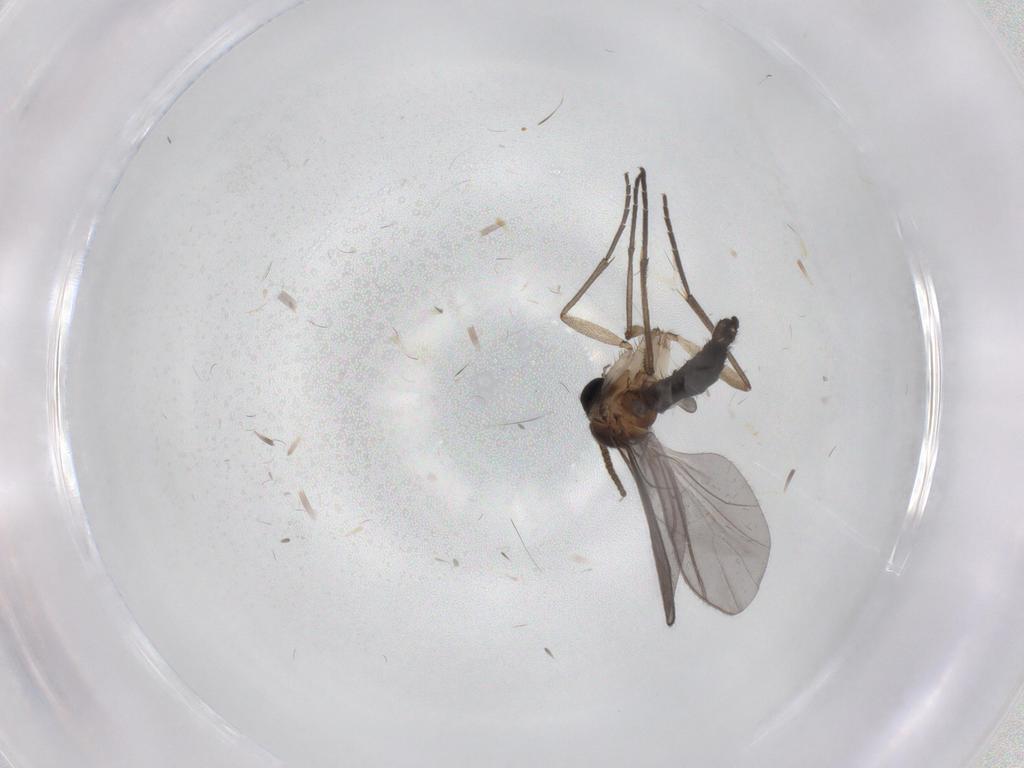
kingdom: Animalia
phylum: Arthropoda
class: Insecta
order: Diptera
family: Sciaridae
